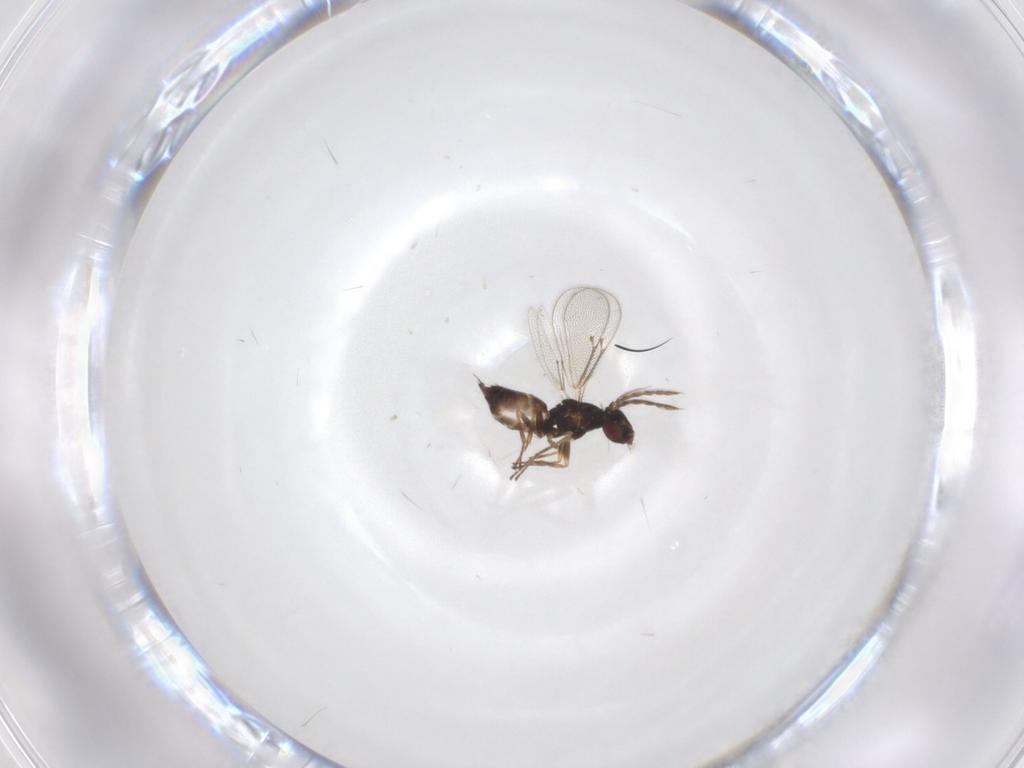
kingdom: Animalia
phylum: Arthropoda
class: Insecta
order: Hymenoptera
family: Eulophidae
